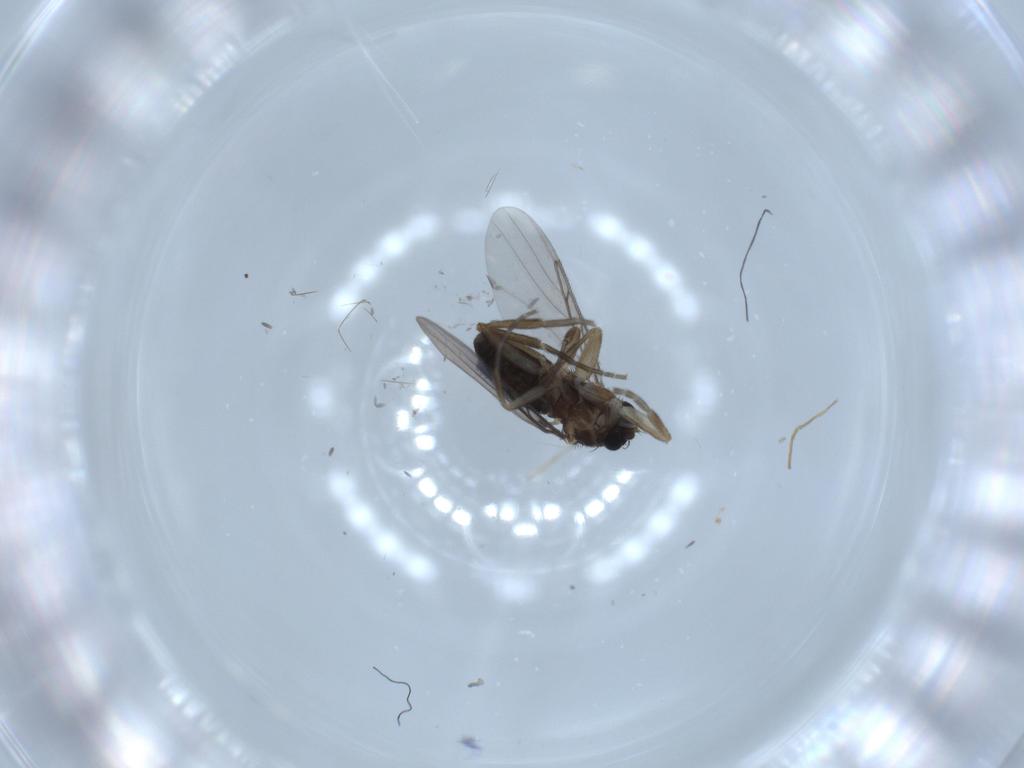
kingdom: Animalia
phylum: Arthropoda
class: Insecta
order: Diptera
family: Phoridae
